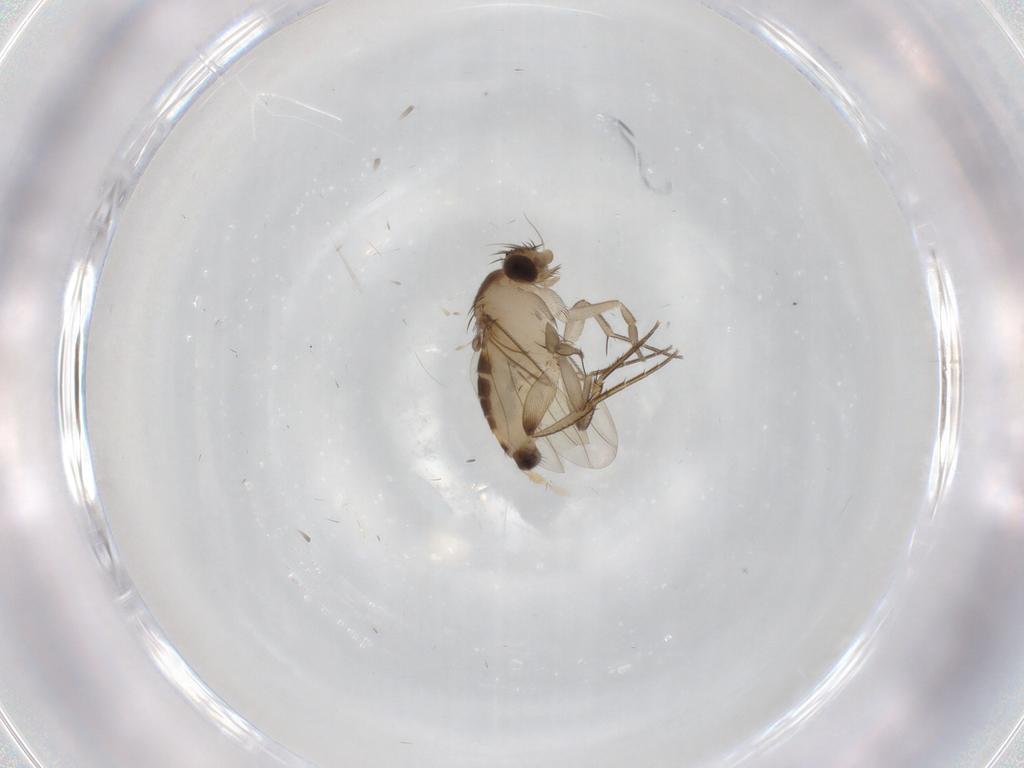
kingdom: Animalia
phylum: Arthropoda
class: Insecta
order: Diptera
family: Phoridae
